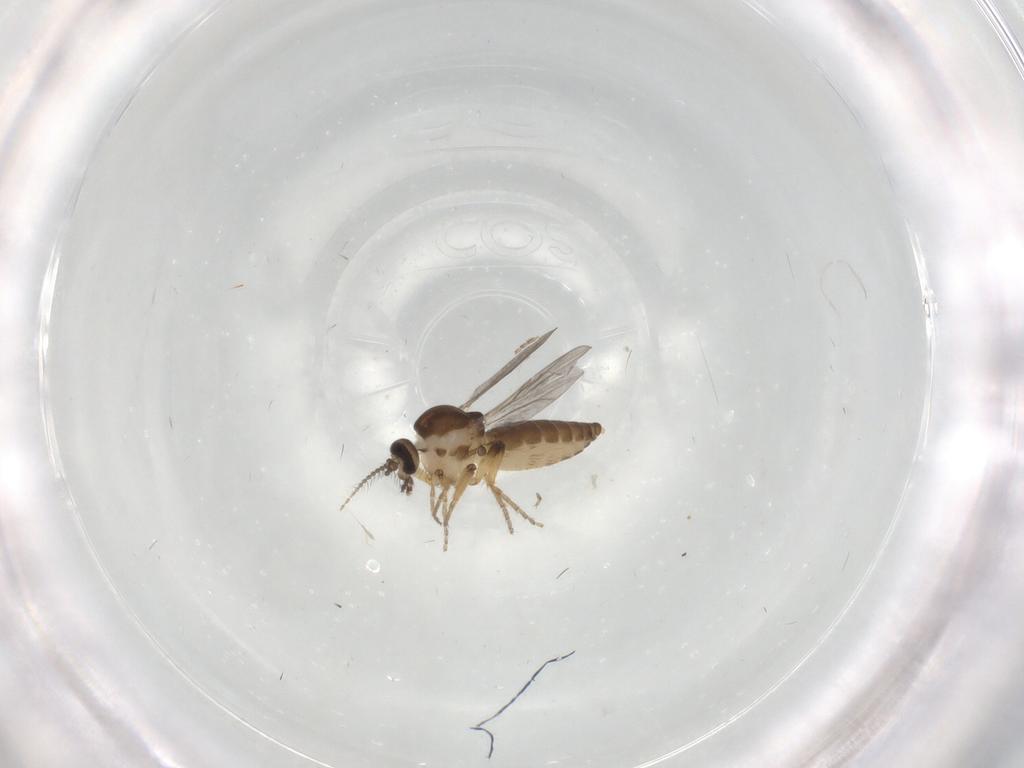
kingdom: Animalia
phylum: Arthropoda
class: Insecta
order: Diptera
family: Ceratopogonidae
